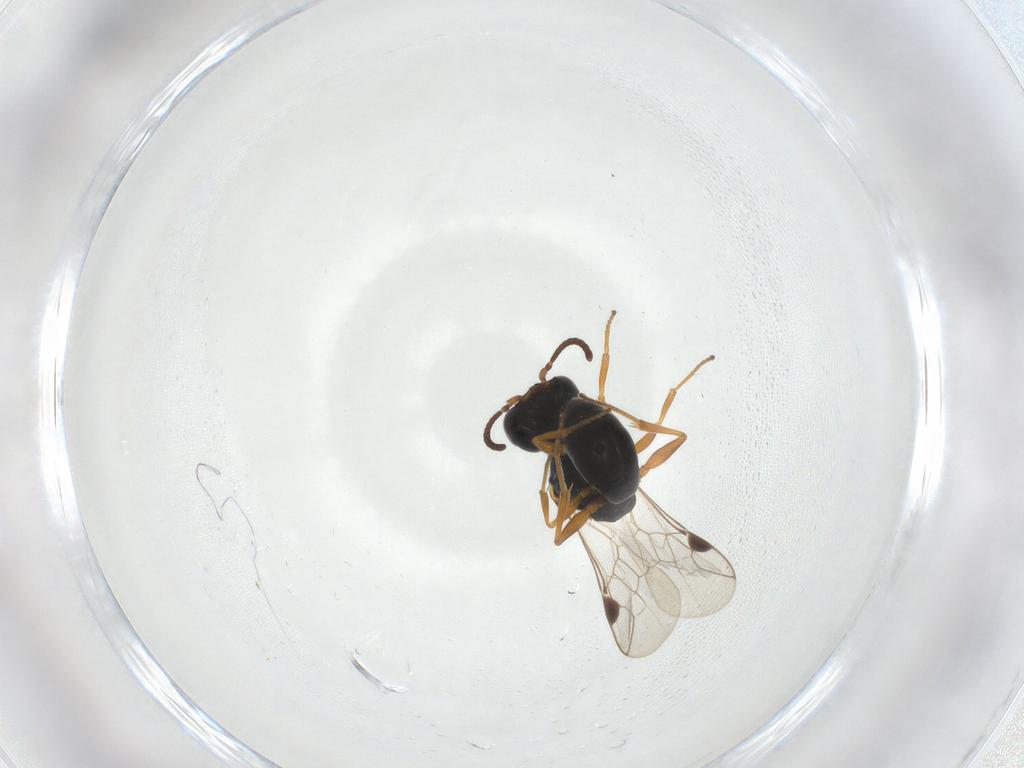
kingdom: Animalia
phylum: Arthropoda
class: Insecta
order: Hymenoptera
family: Crabronidae
